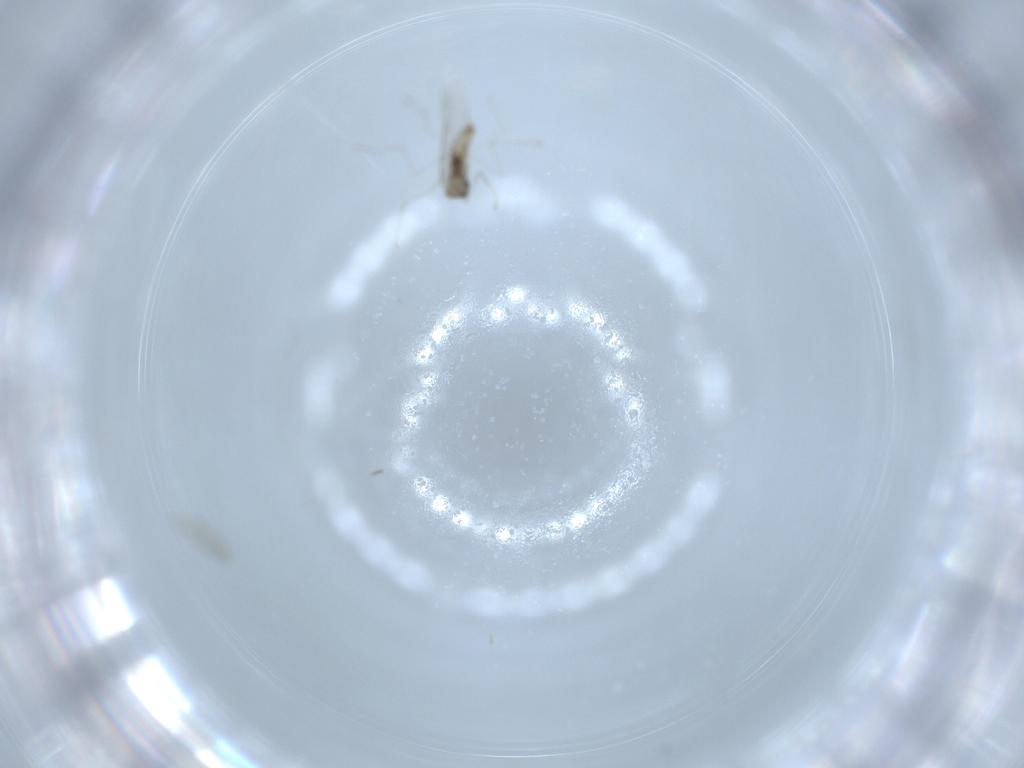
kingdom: Animalia
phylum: Arthropoda
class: Insecta
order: Diptera
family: Cecidomyiidae
